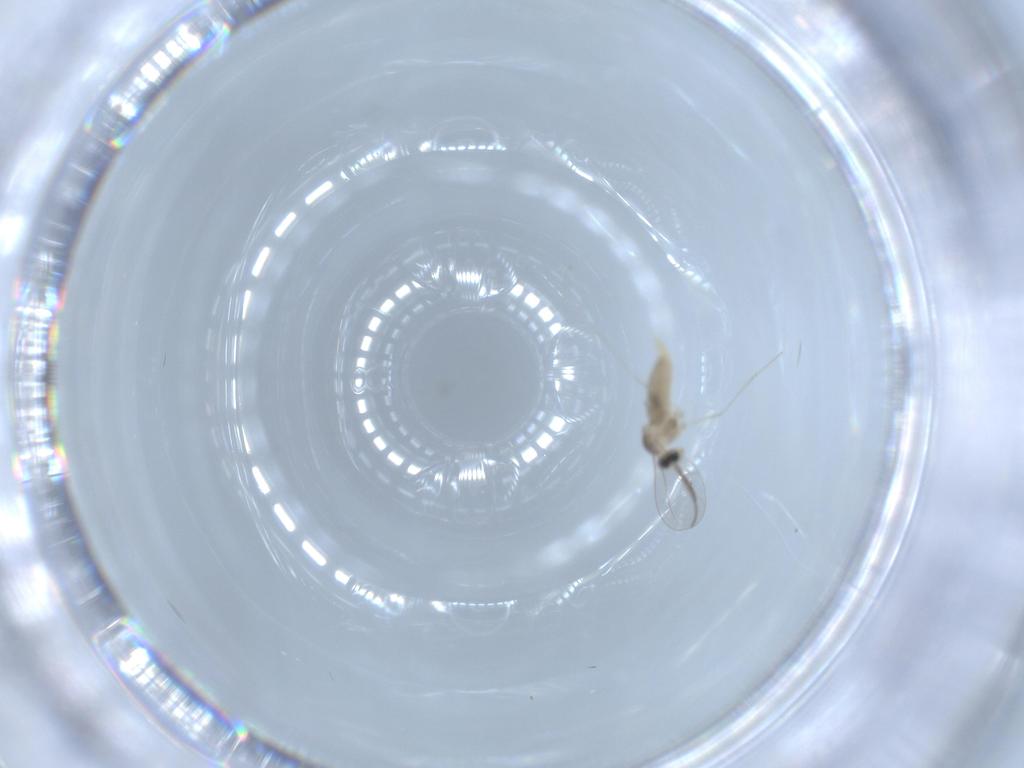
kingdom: Animalia
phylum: Arthropoda
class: Insecta
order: Diptera
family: Cecidomyiidae
